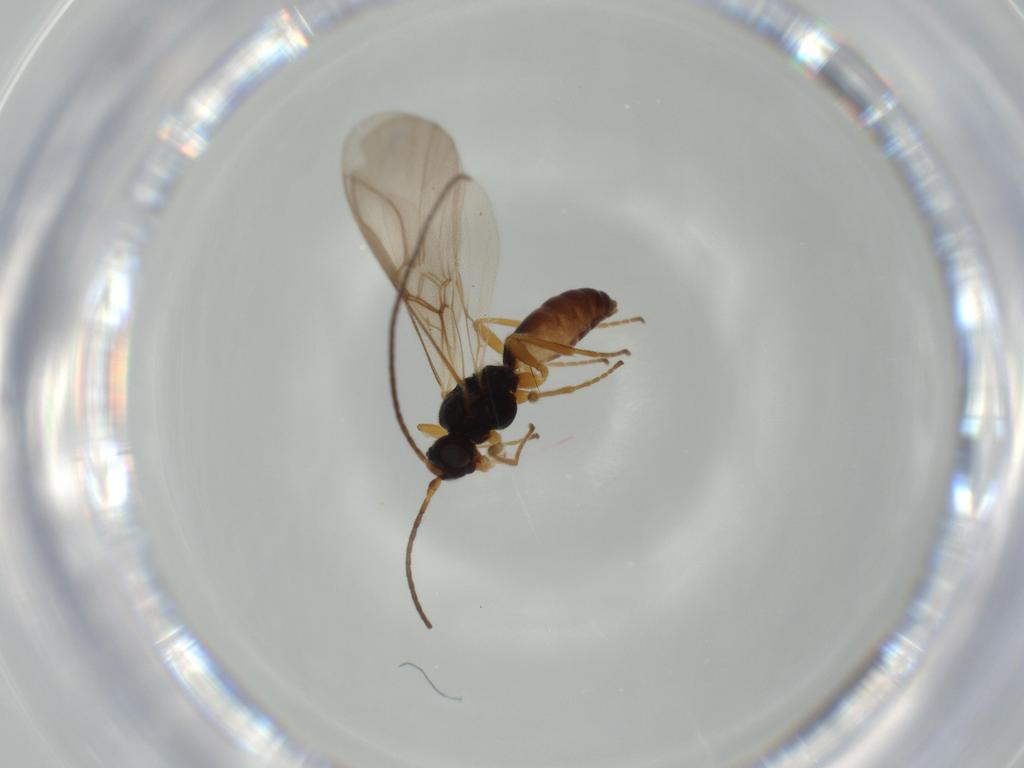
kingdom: Animalia
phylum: Arthropoda
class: Insecta
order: Hymenoptera
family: Braconidae
